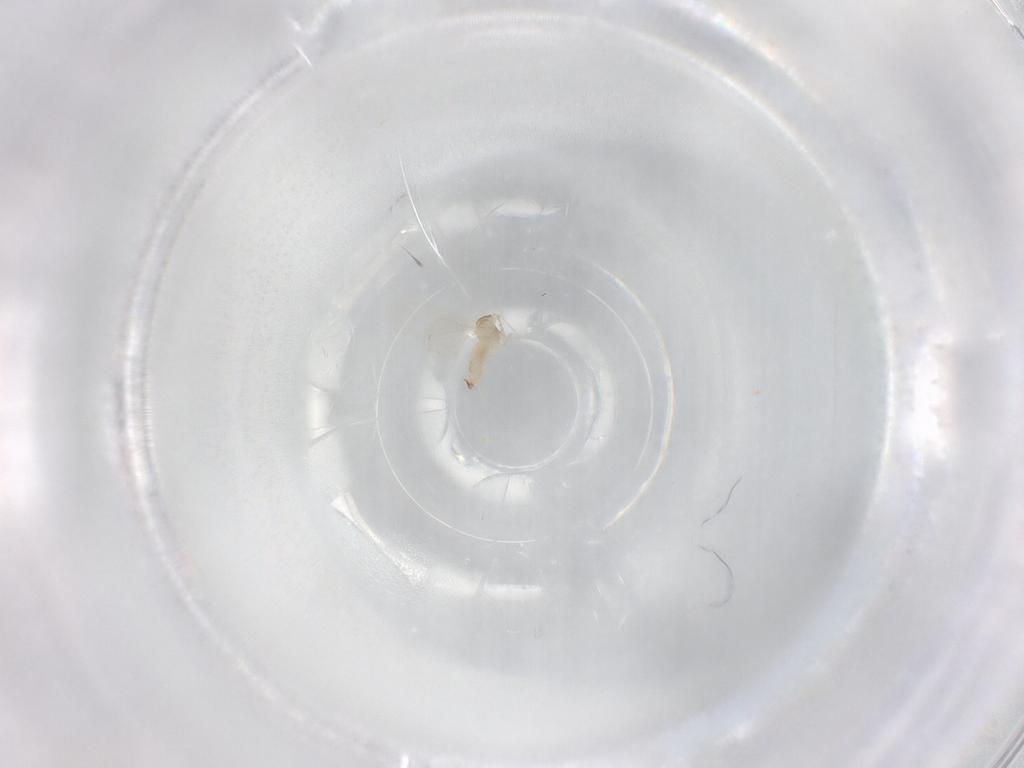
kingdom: Animalia
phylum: Arthropoda
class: Insecta
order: Diptera
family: Cecidomyiidae
